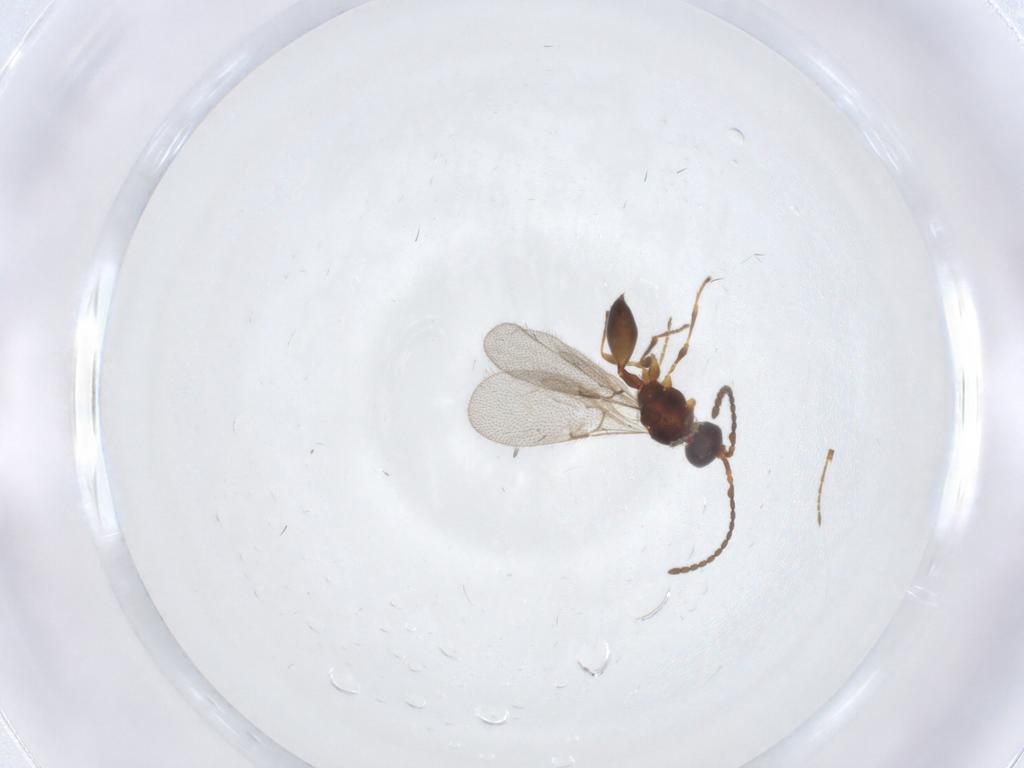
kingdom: Animalia
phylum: Arthropoda
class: Insecta
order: Hymenoptera
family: Diapriidae
